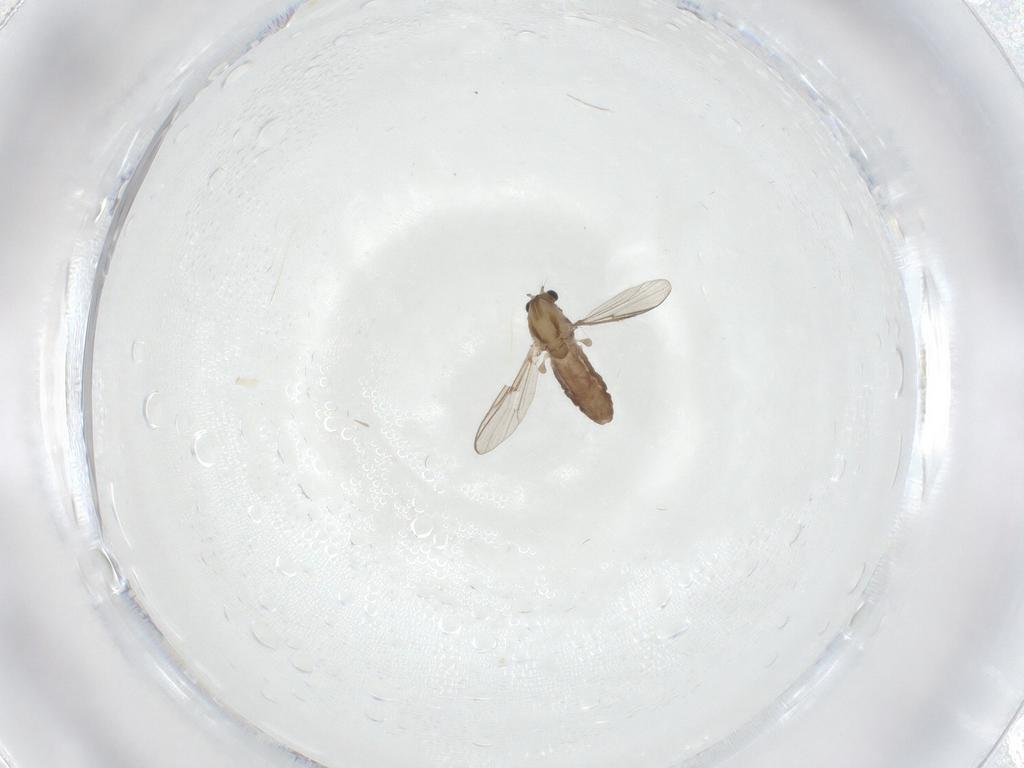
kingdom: Animalia
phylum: Arthropoda
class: Insecta
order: Diptera
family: Chironomidae
